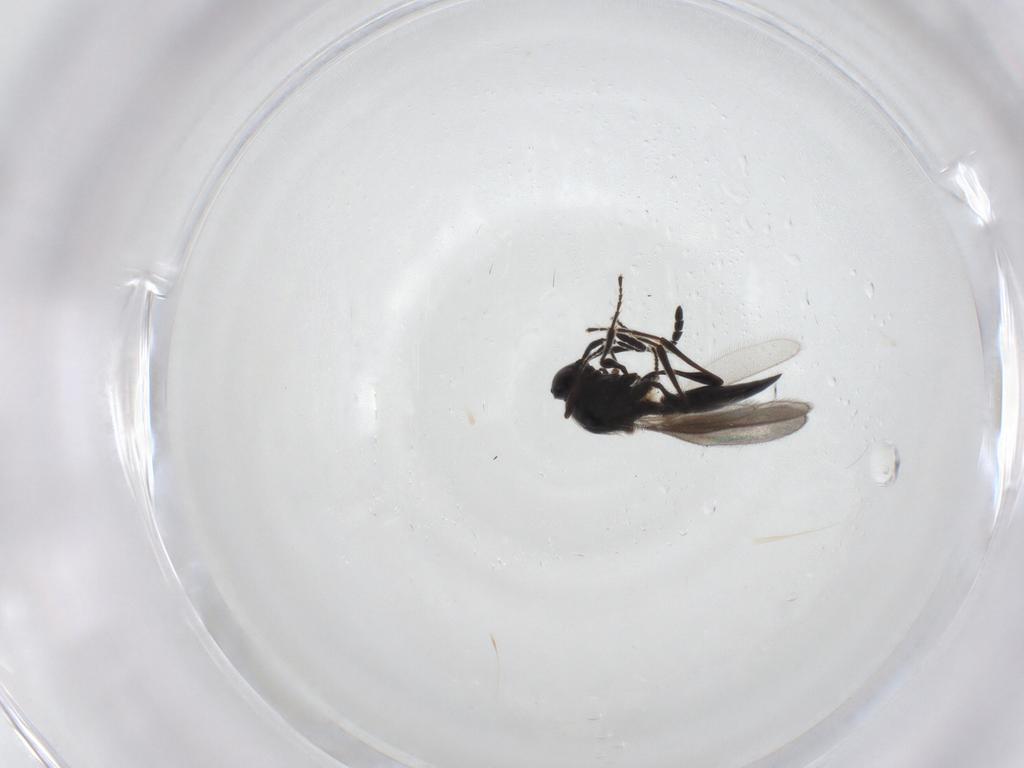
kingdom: Animalia
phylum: Arthropoda
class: Insecta
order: Hymenoptera
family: Platygastridae
